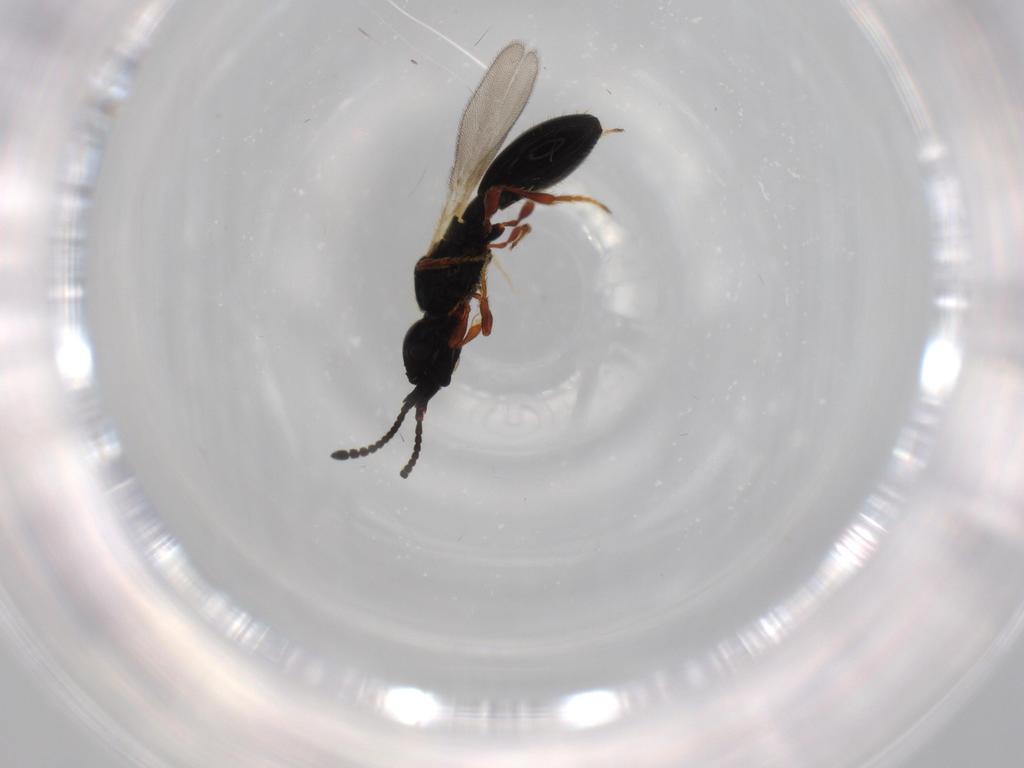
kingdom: Animalia
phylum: Arthropoda
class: Insecta
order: Hymenoptera
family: Diapriidae
